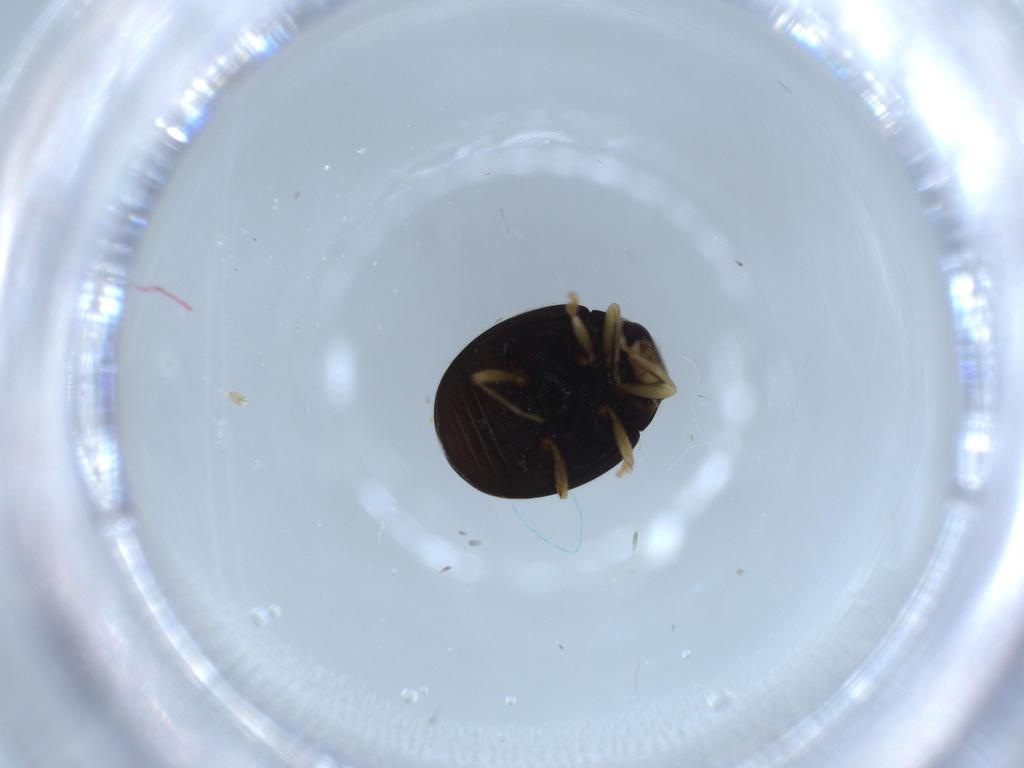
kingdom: Animalia
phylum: Arthropoda
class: Insecta
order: Coleoptera
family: Coccinellidae
